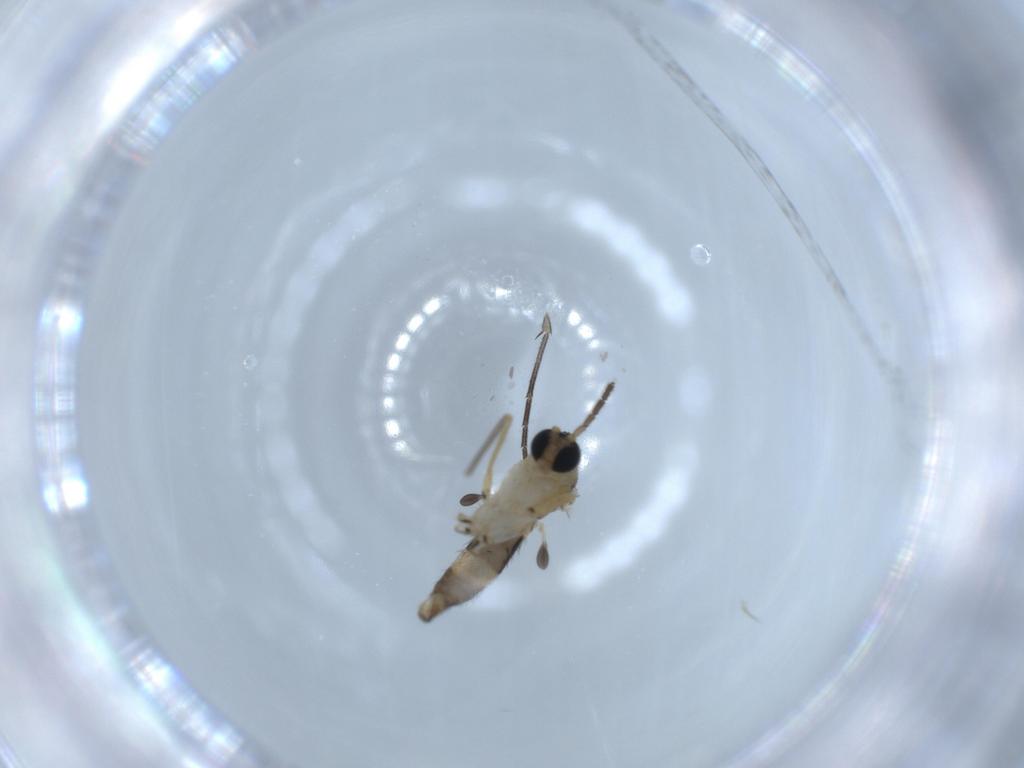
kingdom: Animalia
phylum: Arthropoda
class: Insecta
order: Diptera
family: Sciaridae
